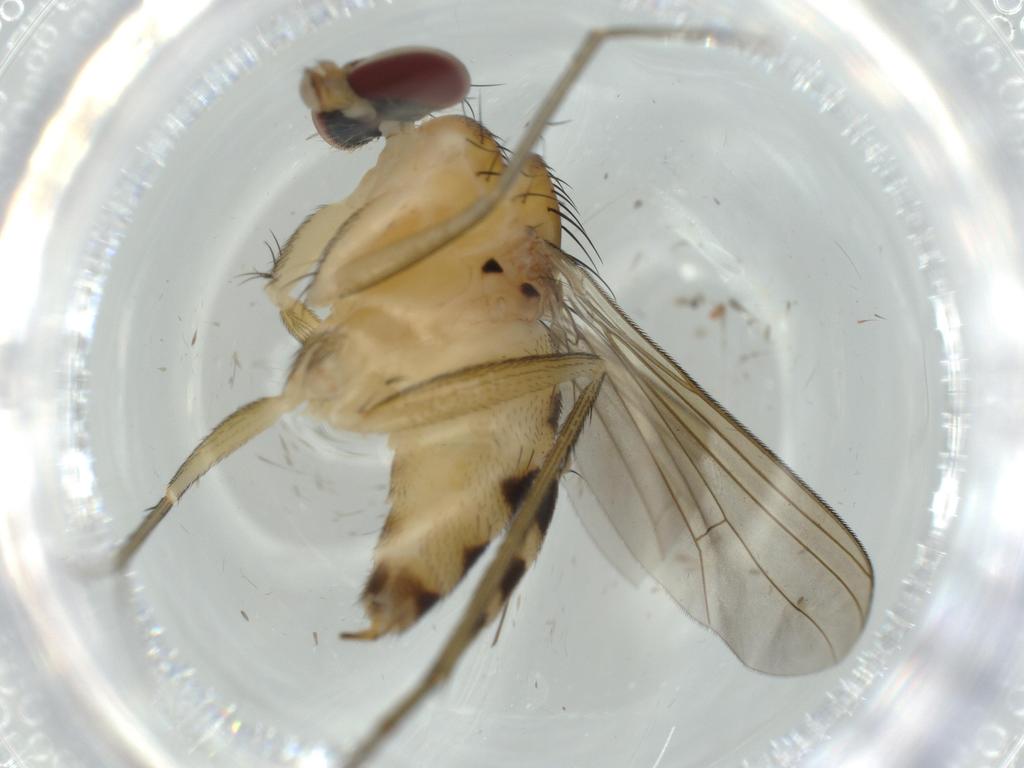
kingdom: Animalia
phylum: Arthropoda
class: Insecta
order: Diptera
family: Dolichopodidae
